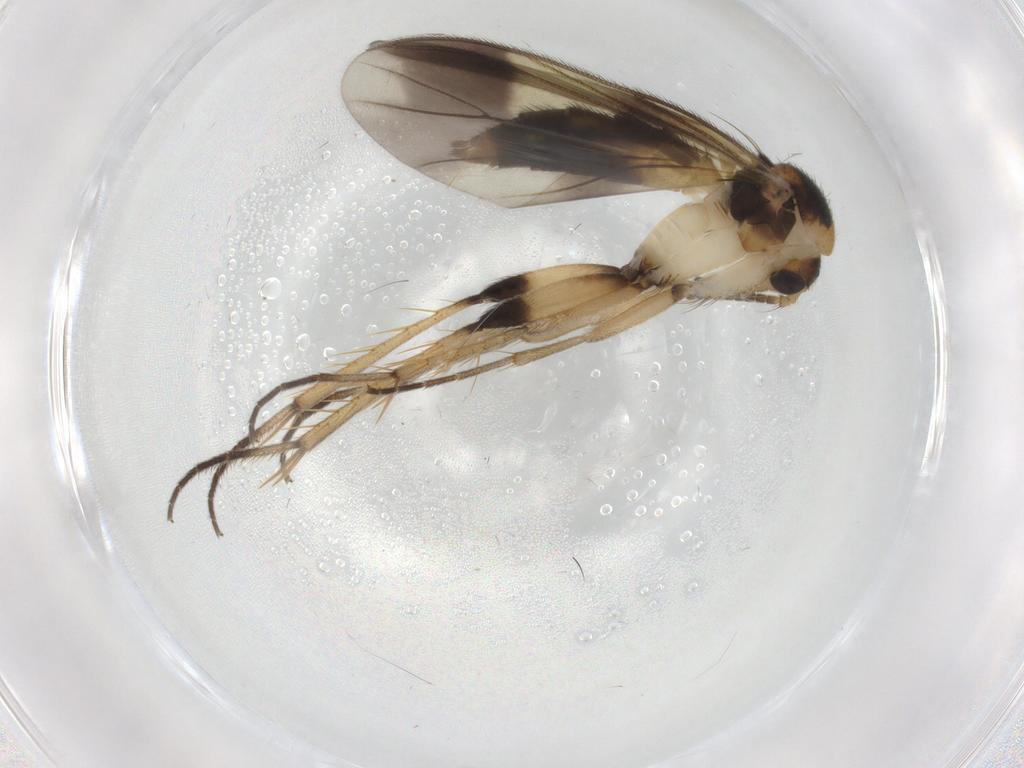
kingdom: Animalia
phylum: Arthropoda
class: Insecta
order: Diptera
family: Mycetophilidae
